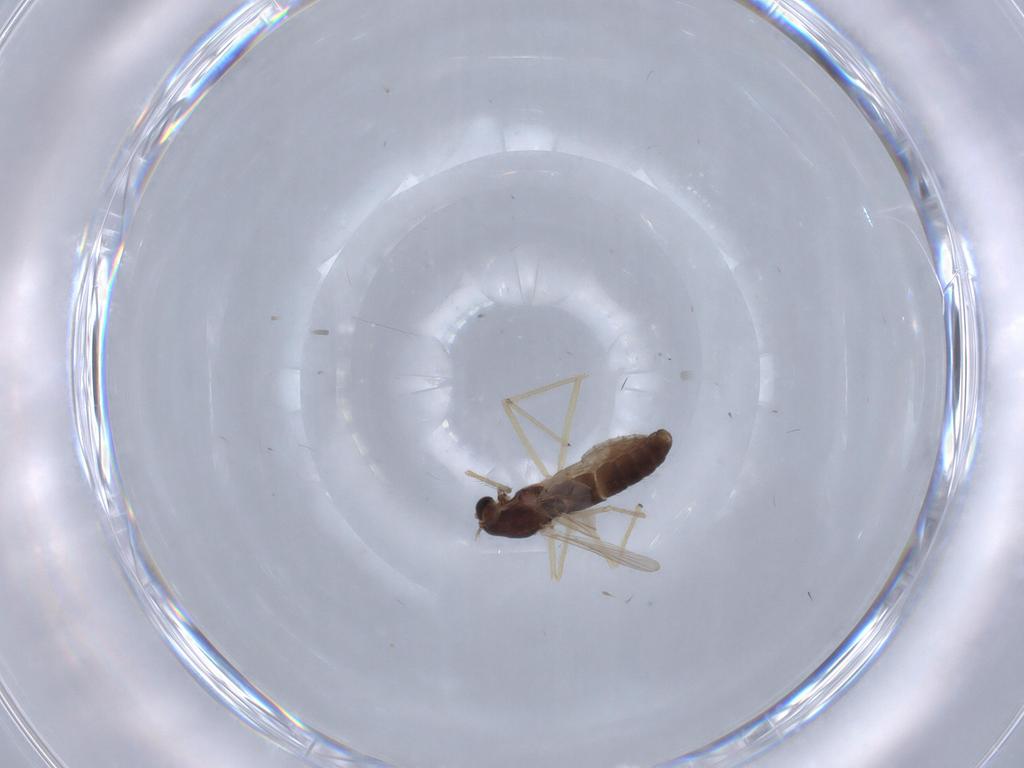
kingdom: Animalia
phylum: Arthropoda
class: Insecta
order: Diptera
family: Chironomidae
